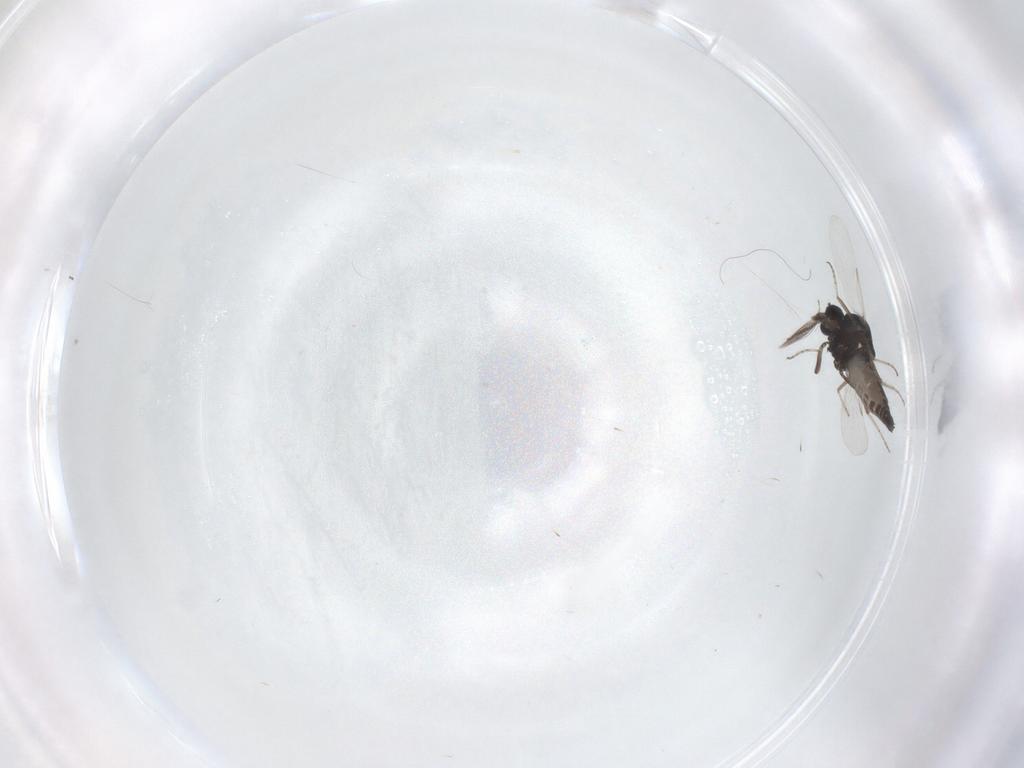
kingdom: Animalia
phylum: Arthropoda
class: Insecta
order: Diptera
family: Ceratopogonidae
